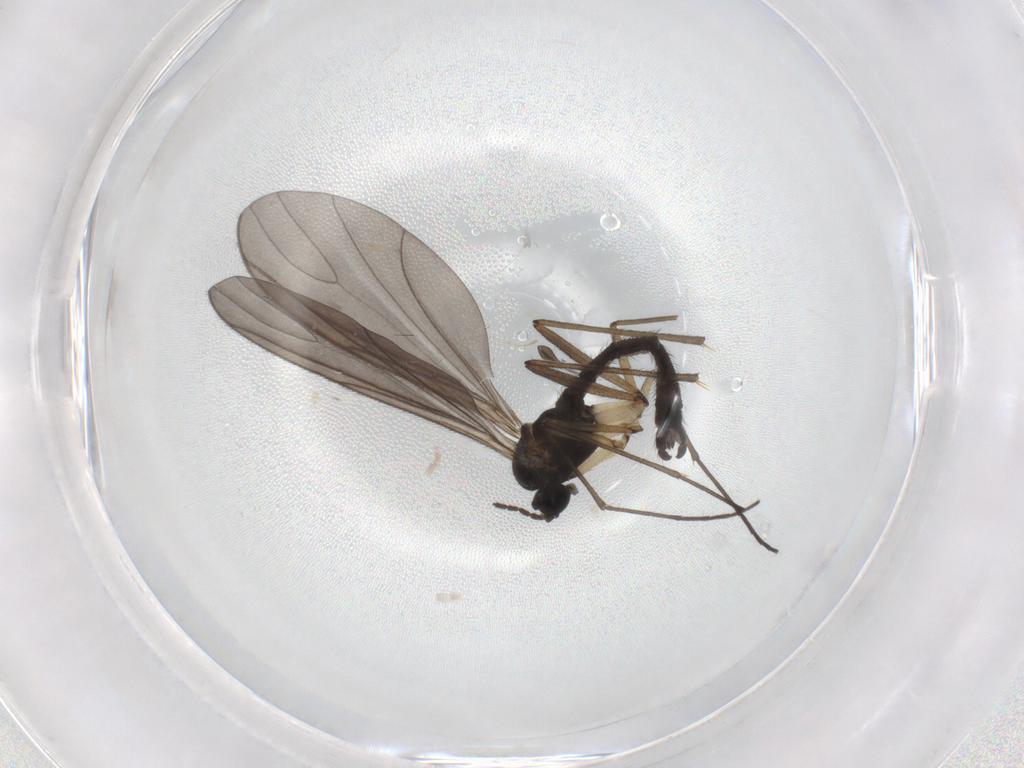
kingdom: Animalia
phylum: Arthropoda
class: Insecta
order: Diptera
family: Sciaridae
